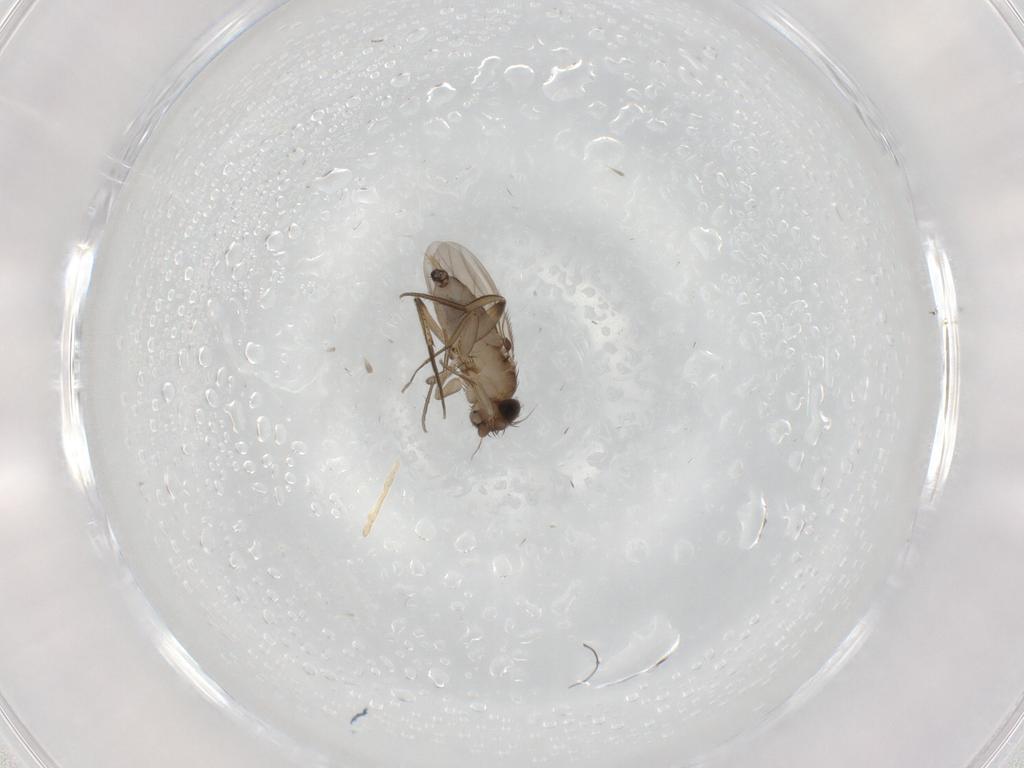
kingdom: Animalia
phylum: Arthropoda
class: Insecta
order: Diptera
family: Phoridae
